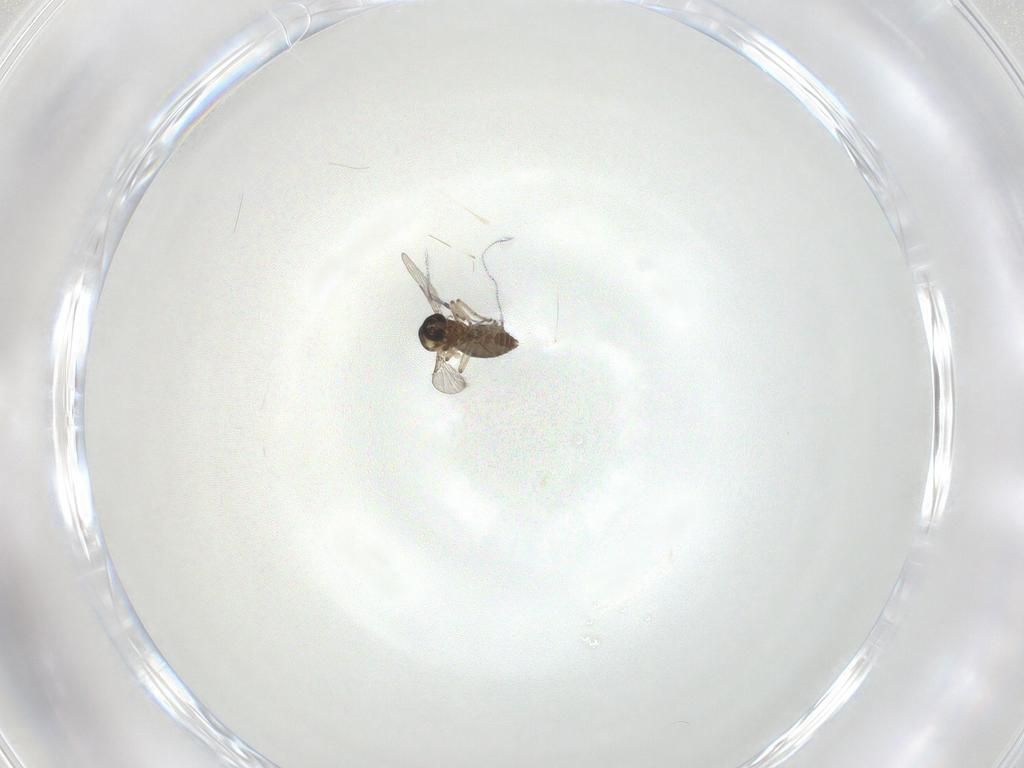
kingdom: Animalia
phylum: Arthropoda
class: Insecta
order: Diptera
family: Ceratopogonidae
